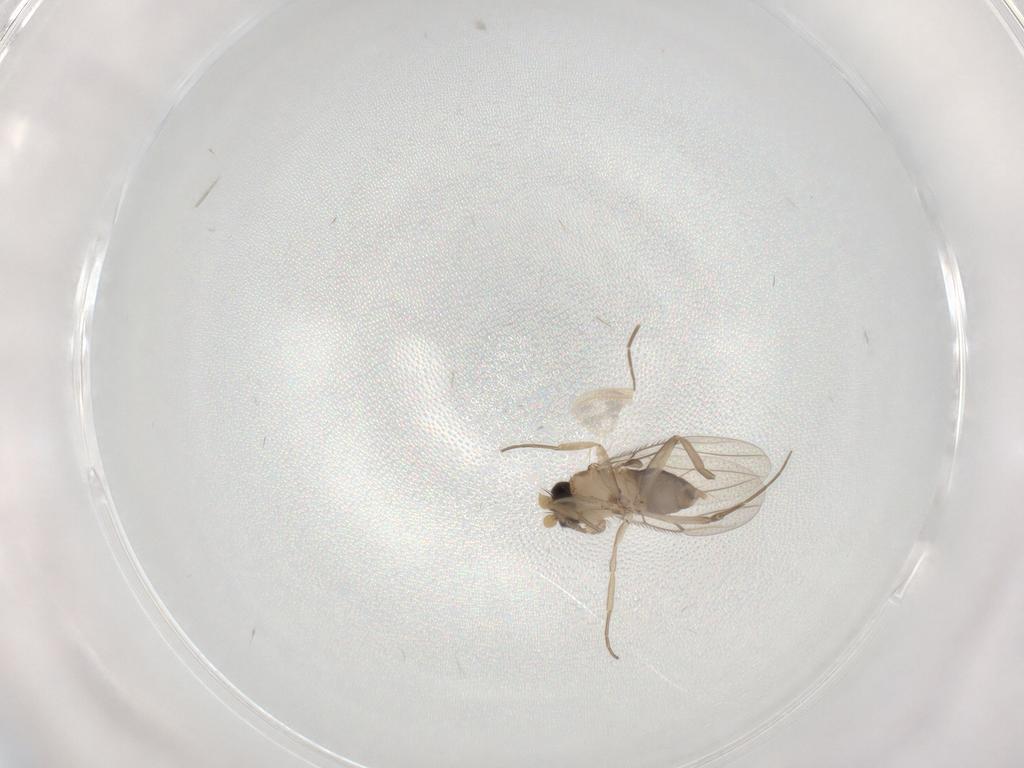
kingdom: Animalia
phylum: Arthropoda
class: Insecta
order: Diptera
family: Phoridae
